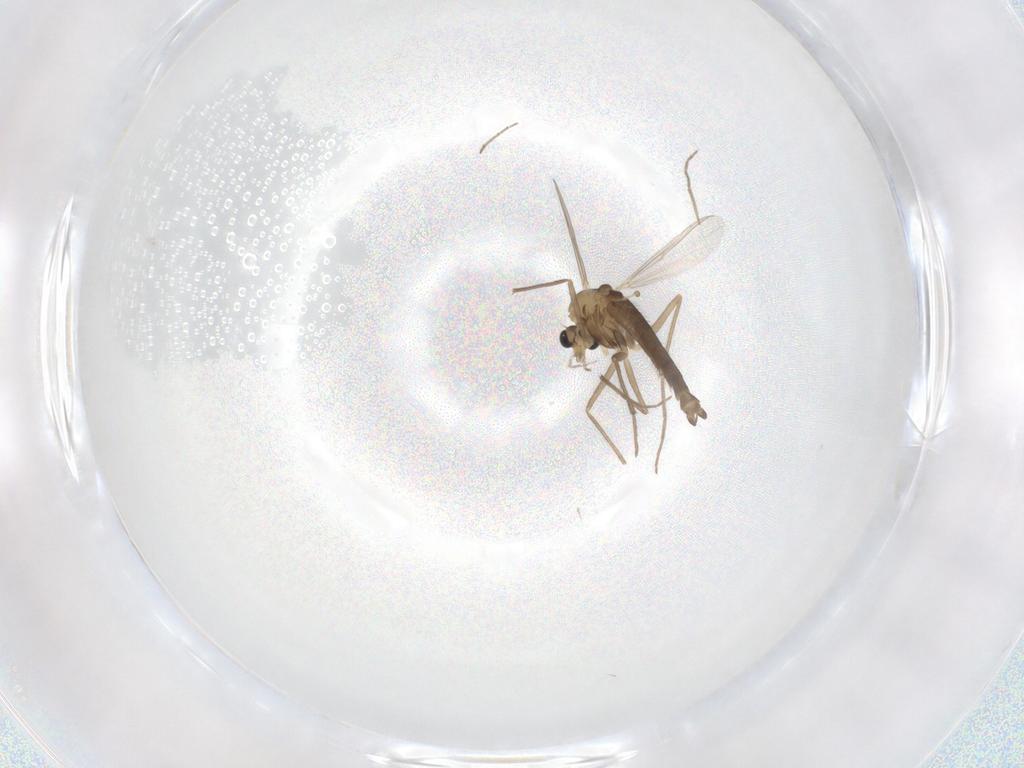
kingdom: Animalia
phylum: Arthropoda
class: Insecta
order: Diptera
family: Chironomidae
